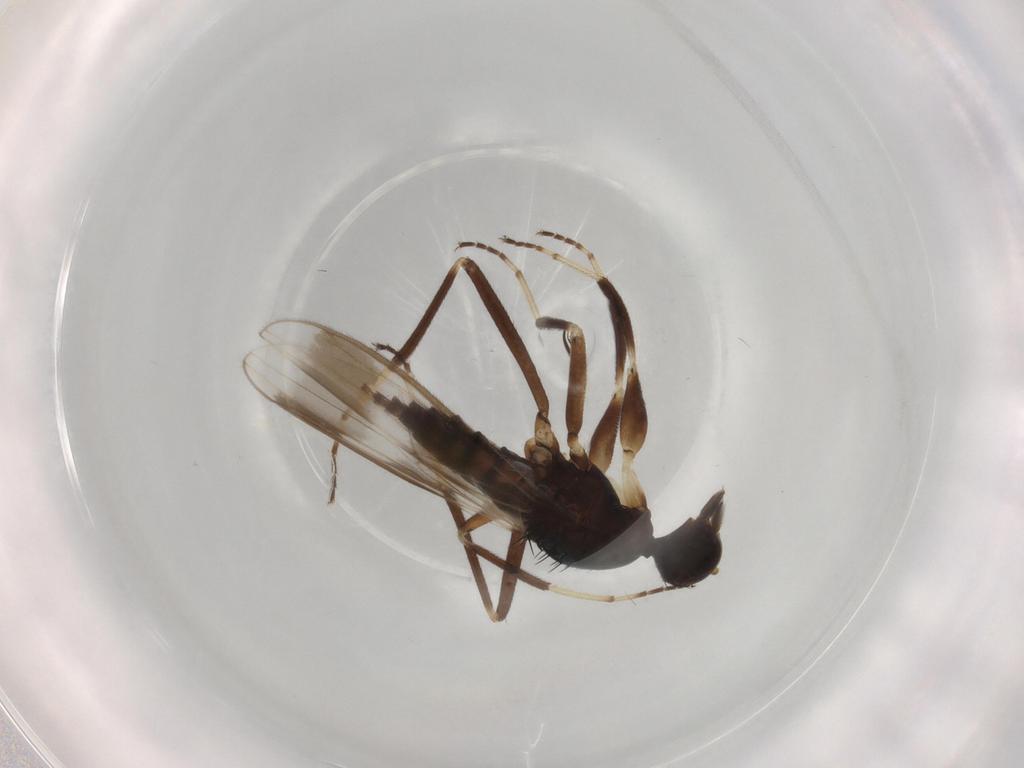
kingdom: Animalia
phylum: Arthropoda
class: Insecta
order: Diptera
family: Hybotidae
